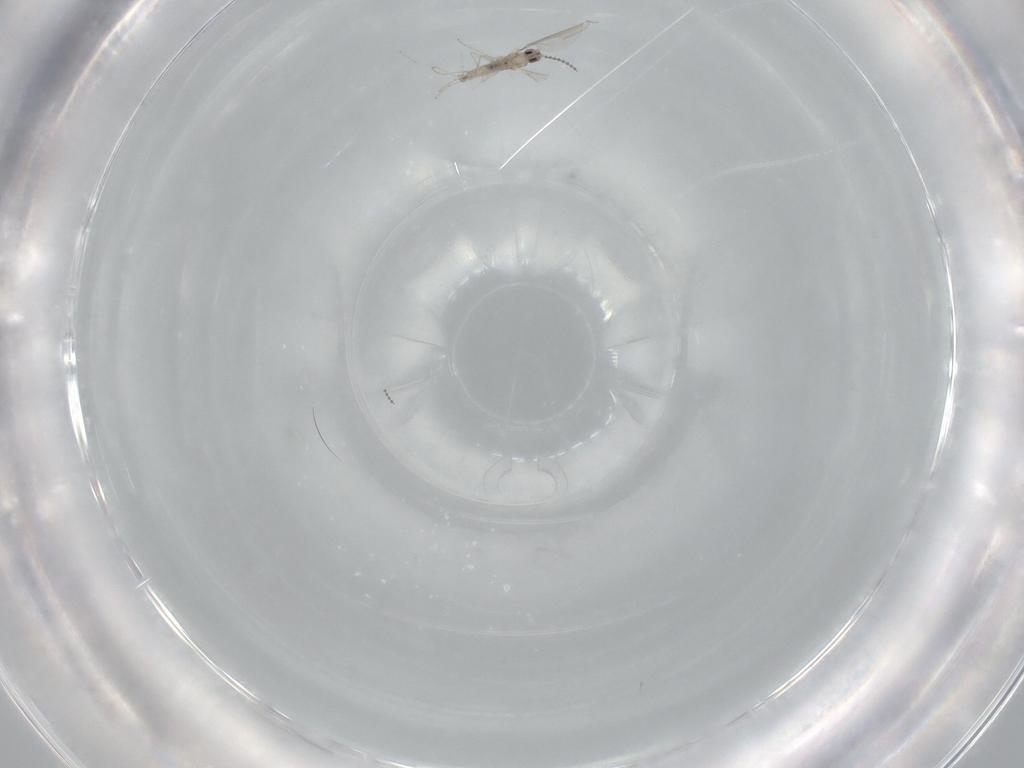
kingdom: Animalia
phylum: Arthropoda
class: Insecta
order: Diptera
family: Cecidomyiidae
